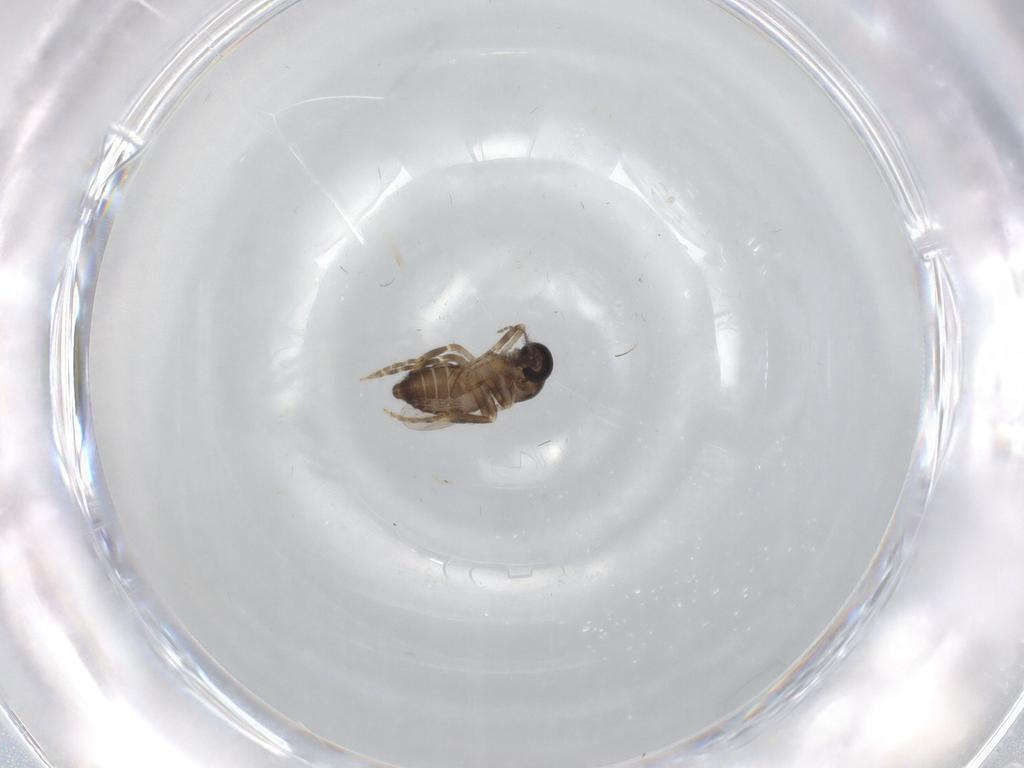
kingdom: Animalia
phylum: Arthropoda
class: Insecta
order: Diptera
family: Ceratopogonidae
